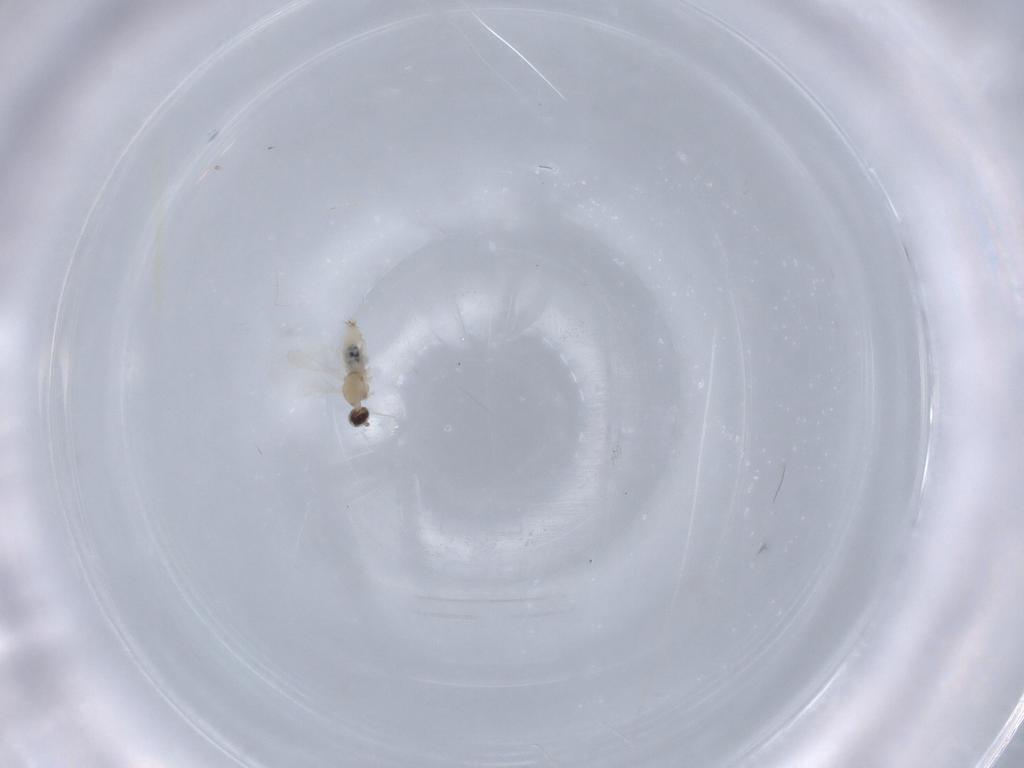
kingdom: Animalia
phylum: Arthropoda
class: Insecta
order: Diptera
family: Cecidomyiidae
